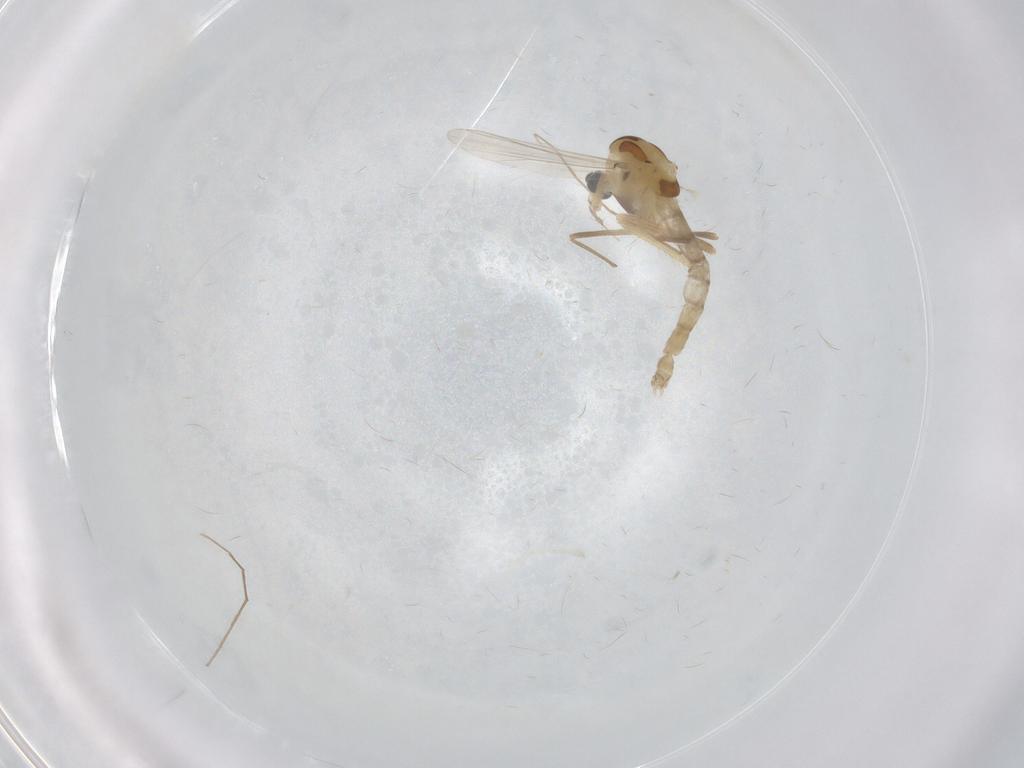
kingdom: Animalia
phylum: Arthropoda
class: Insecta
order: Diptera
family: Chironomidae
